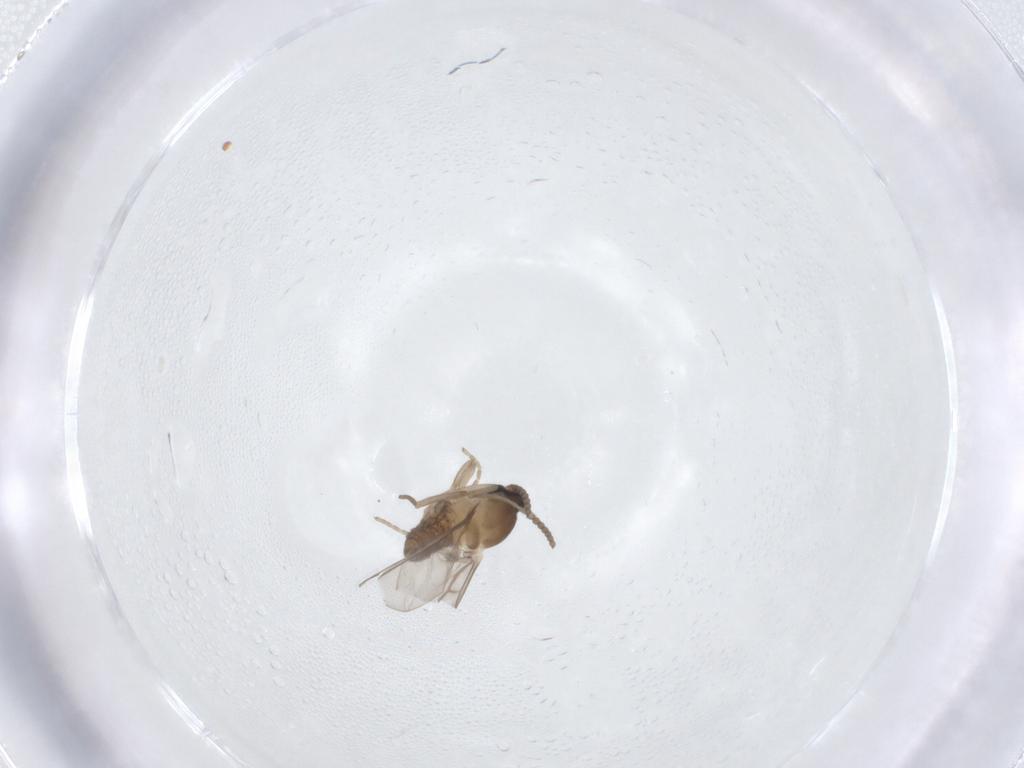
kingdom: Animalia
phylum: Arthropoda
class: Insecta
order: Diptera
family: Cecidomyiidae
